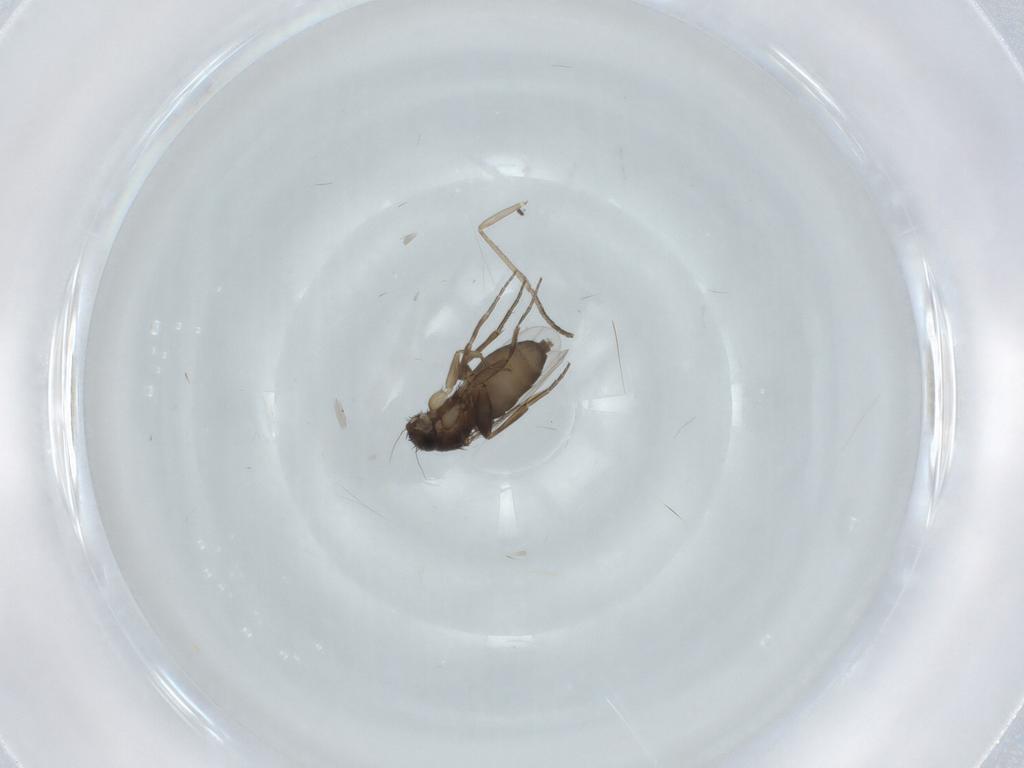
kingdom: Animalia
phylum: Arthropoda
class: Insecta
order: Diptera
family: Phoridae
